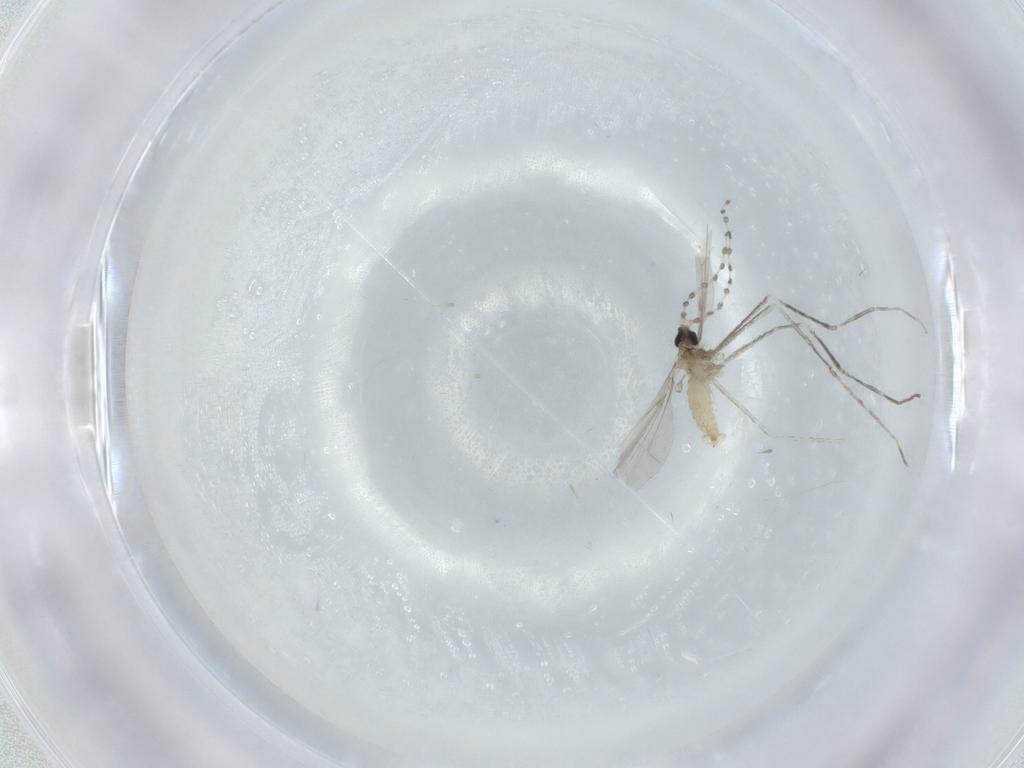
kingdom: Animalia
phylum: Arthropoda
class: Insecta
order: Diptera
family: Cecidomyiidae
